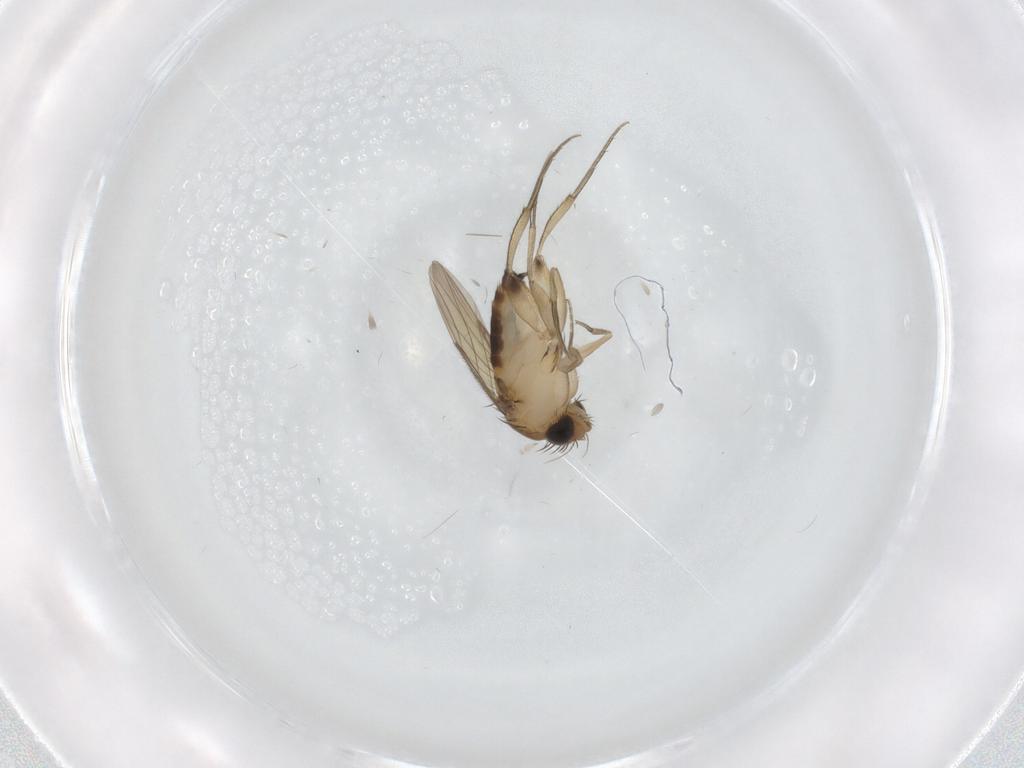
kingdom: Animalia
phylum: Arthropoda
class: Insecta
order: Diptera
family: Phoridae
